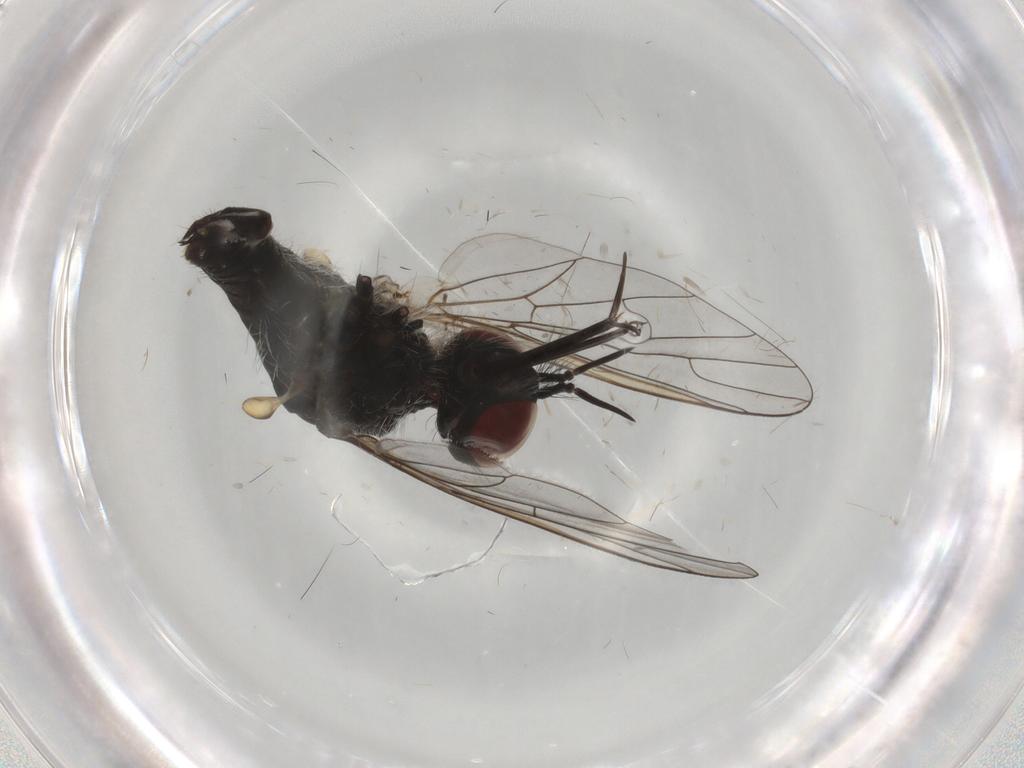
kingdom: Animalia
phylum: Arthropoda
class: Insecta
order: Diptera
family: Bombyliidae
